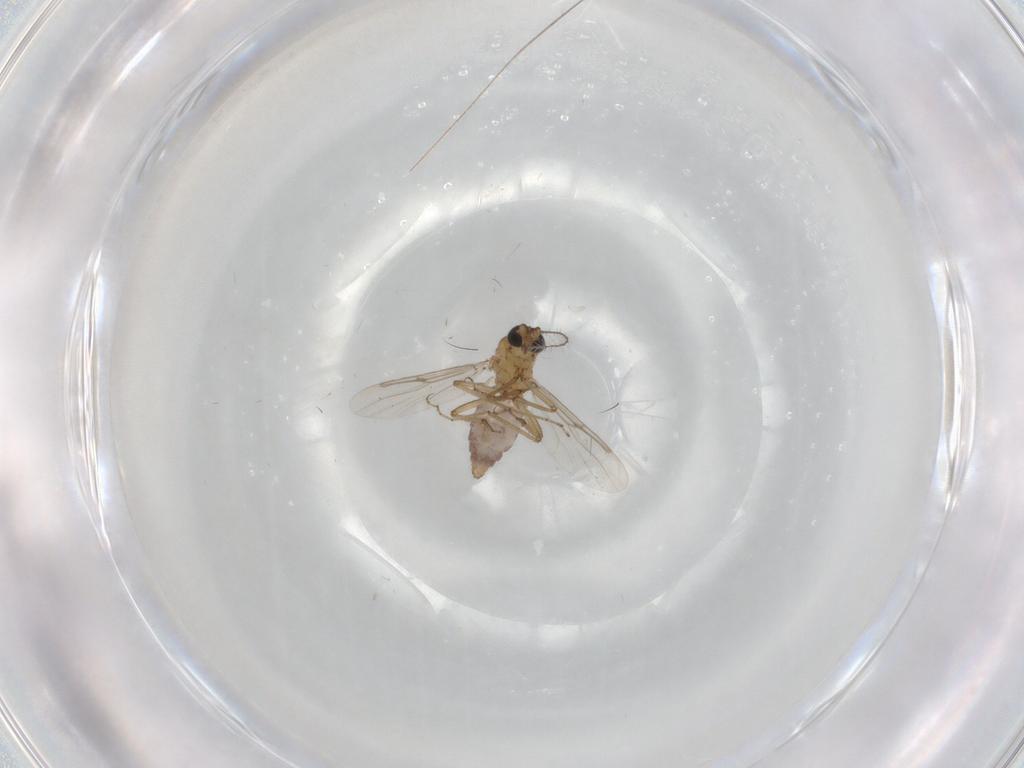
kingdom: Animalia
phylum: Arthropoda
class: Insecta
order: Diptera
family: Ceratopogonidae
